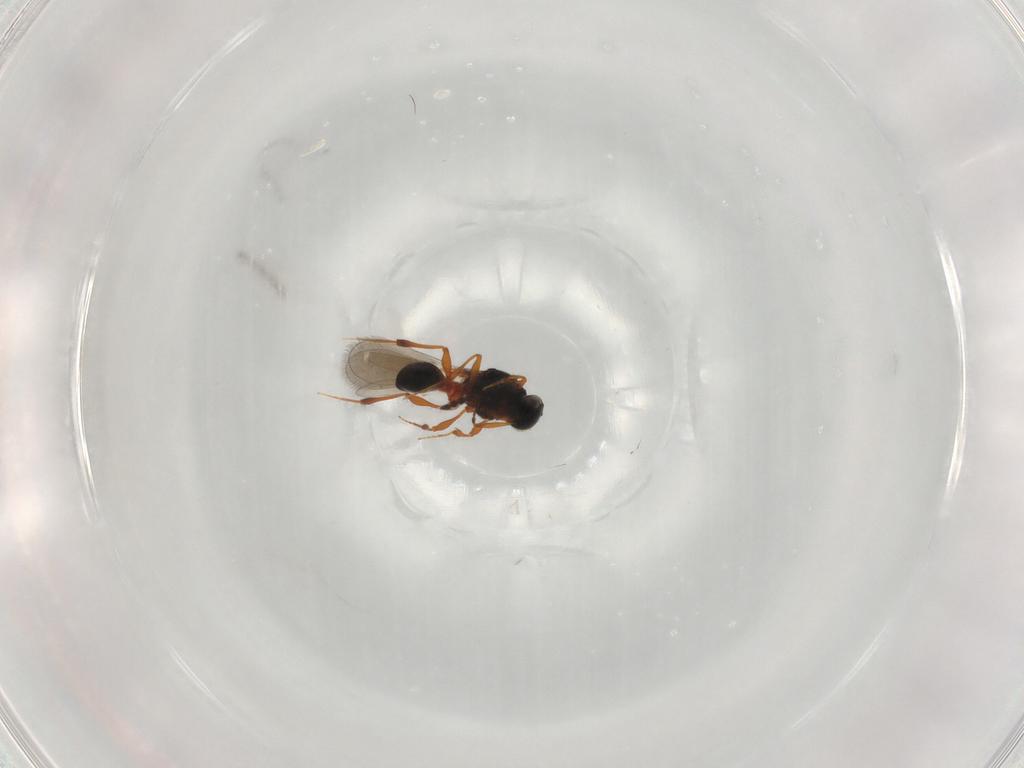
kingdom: Animalia
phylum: Arthropoda
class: Insecta
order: Hymenoptera
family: Platygastridae
